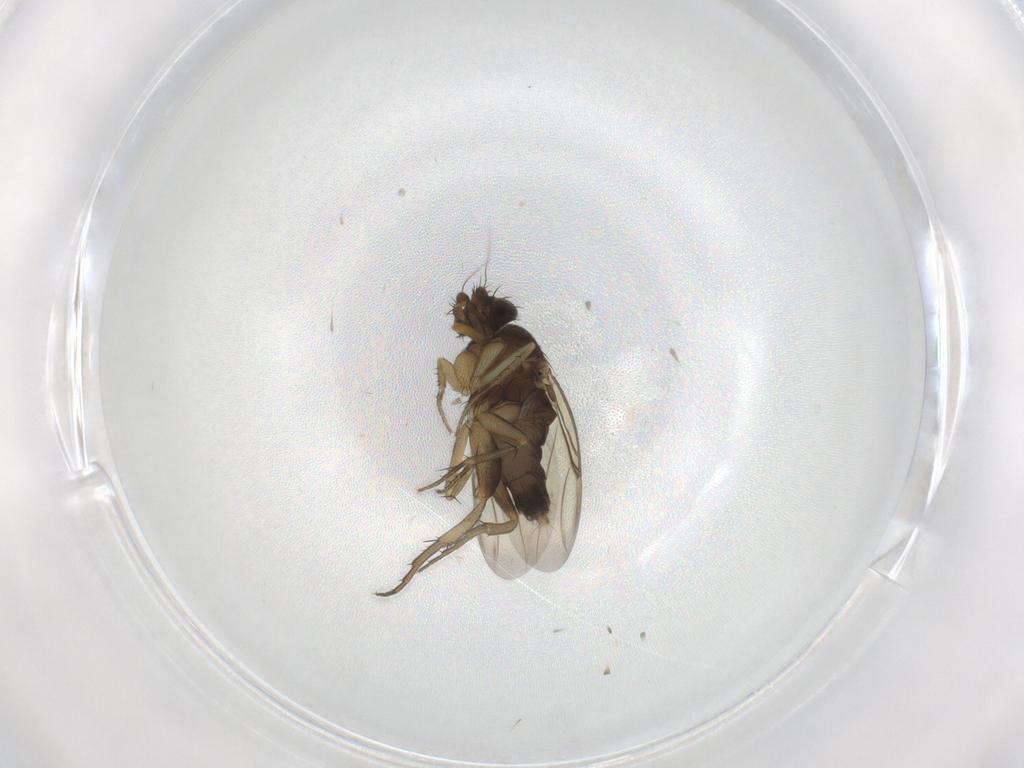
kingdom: Animalia
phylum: Arthropoda
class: Insecta
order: Diptera
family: Phoridae
